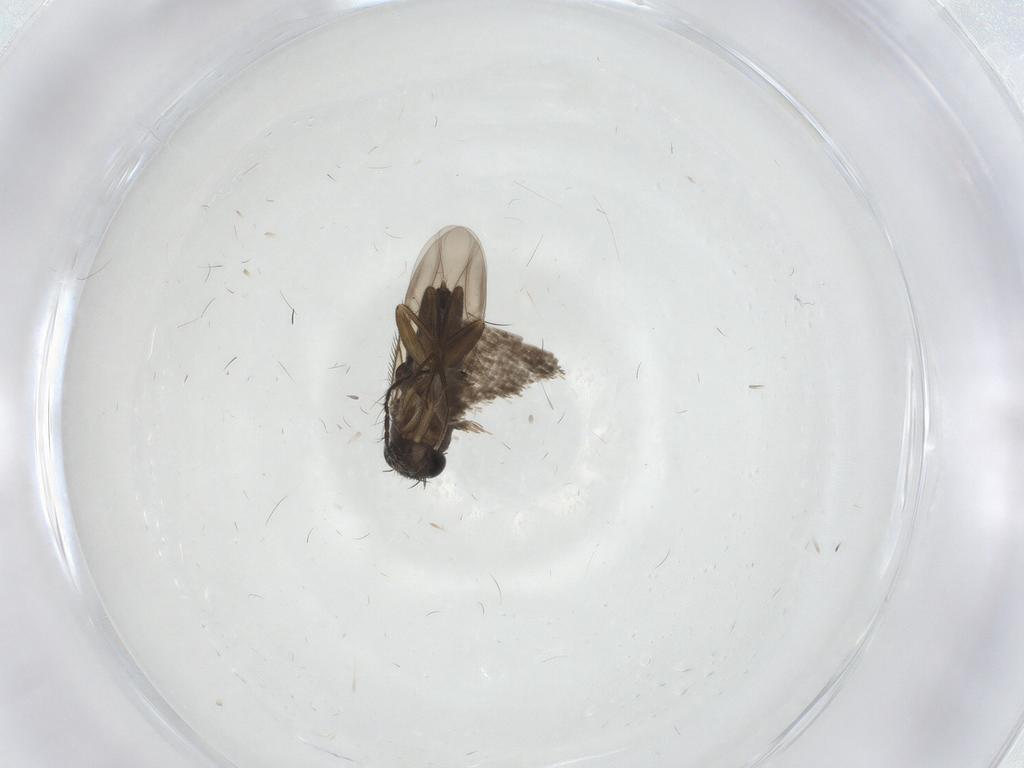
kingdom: Animalia
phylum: Arthropoda
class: Insecta
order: Diptera
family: Phoridae
